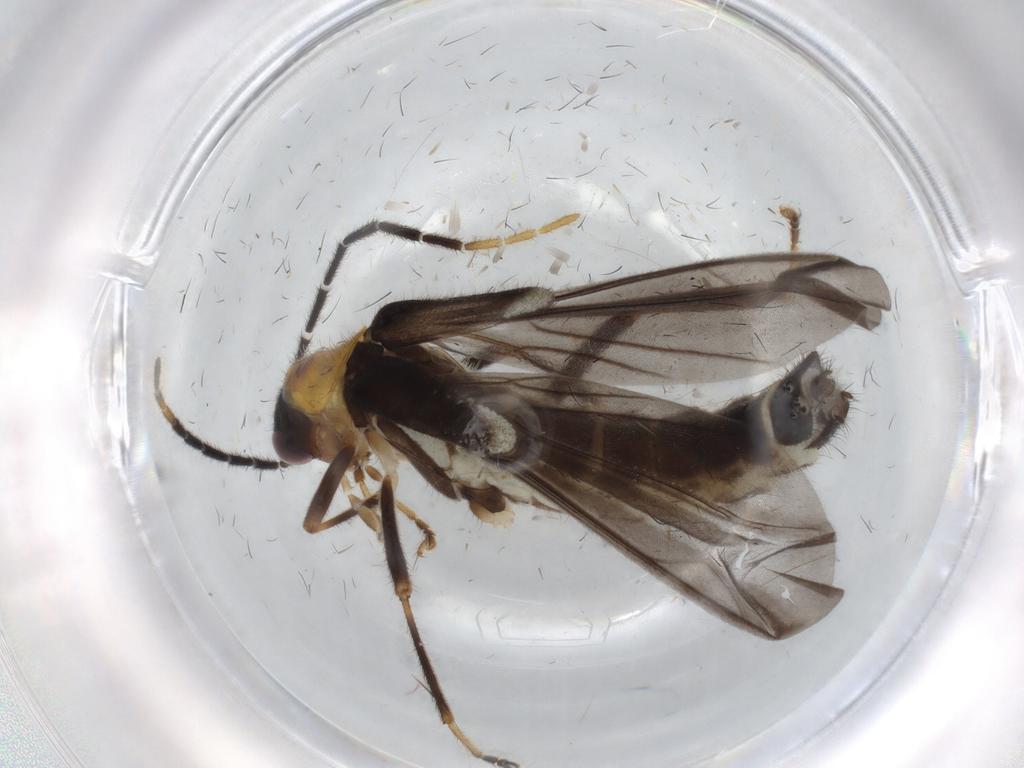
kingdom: Animalia
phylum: Arthropoda
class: Insecta
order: Coleoptera
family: Cantharidae
